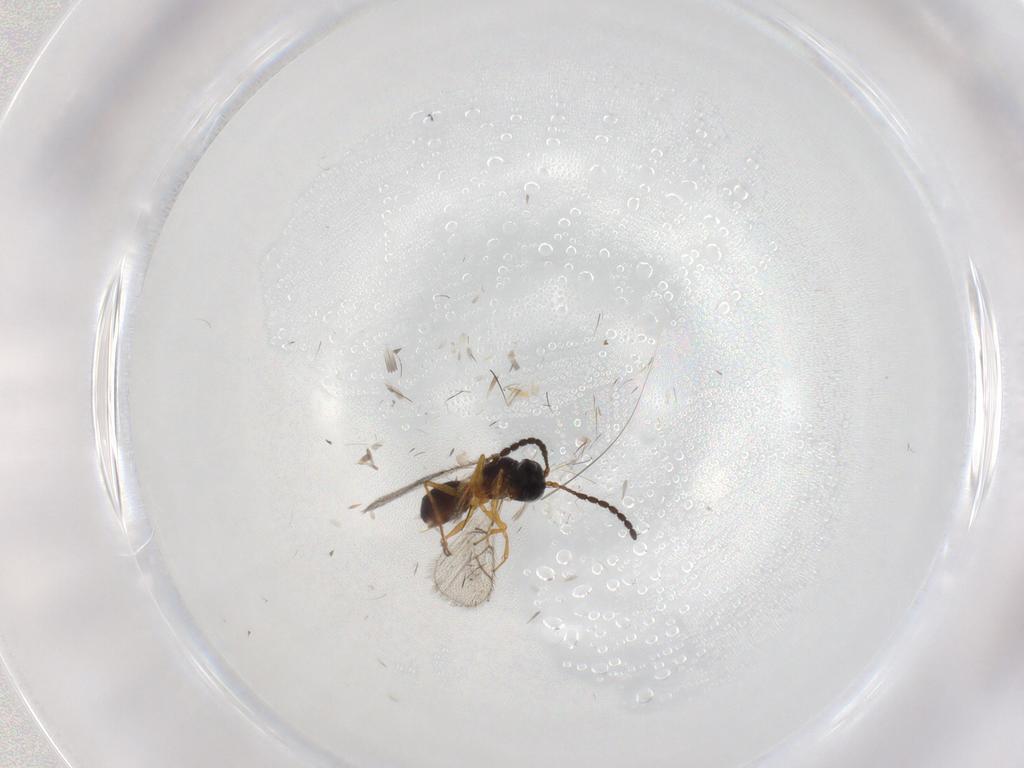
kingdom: Animalia
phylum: Arthropoda
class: Insecta
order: Hymenoptera
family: Figitidae
